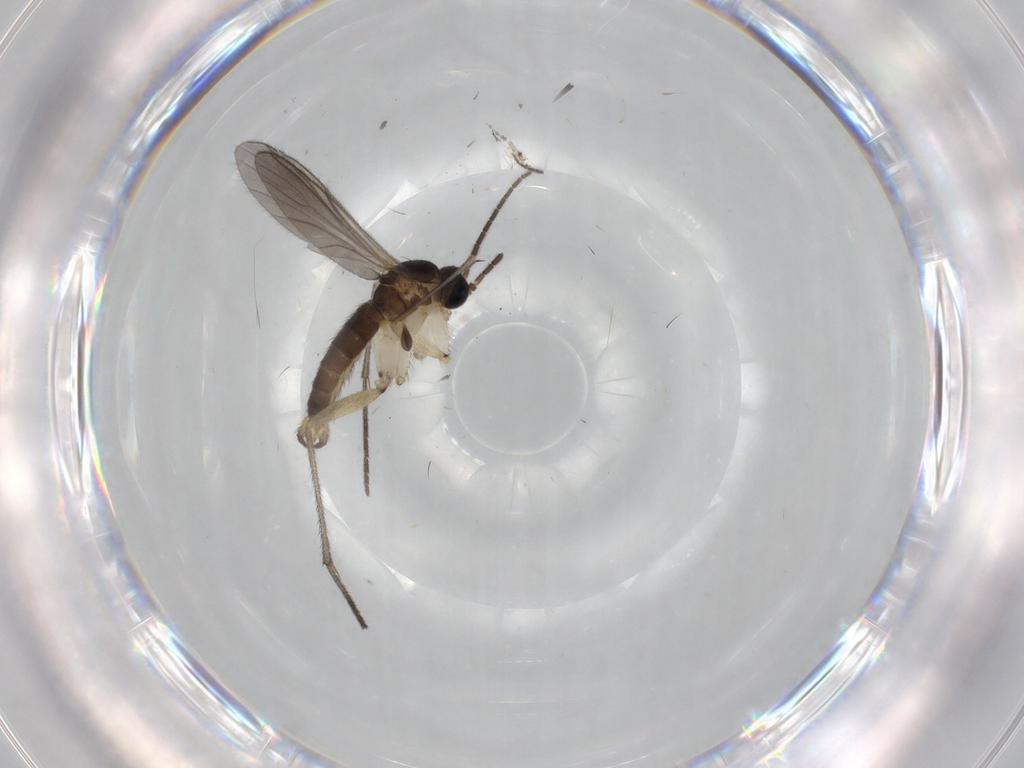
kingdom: Animalia
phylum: Arthropoda
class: Insecta
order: Diptera
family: Sciaridae
